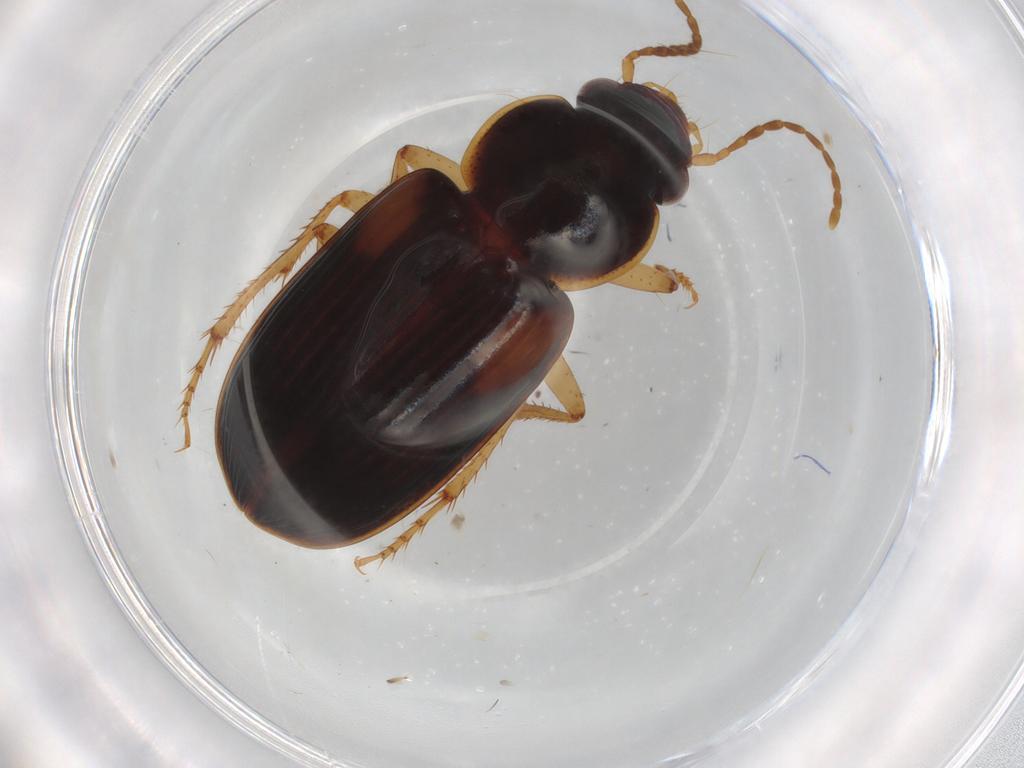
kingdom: Animalia
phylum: Arthropoda
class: Insecta
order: Coleoptera
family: Carabidae
